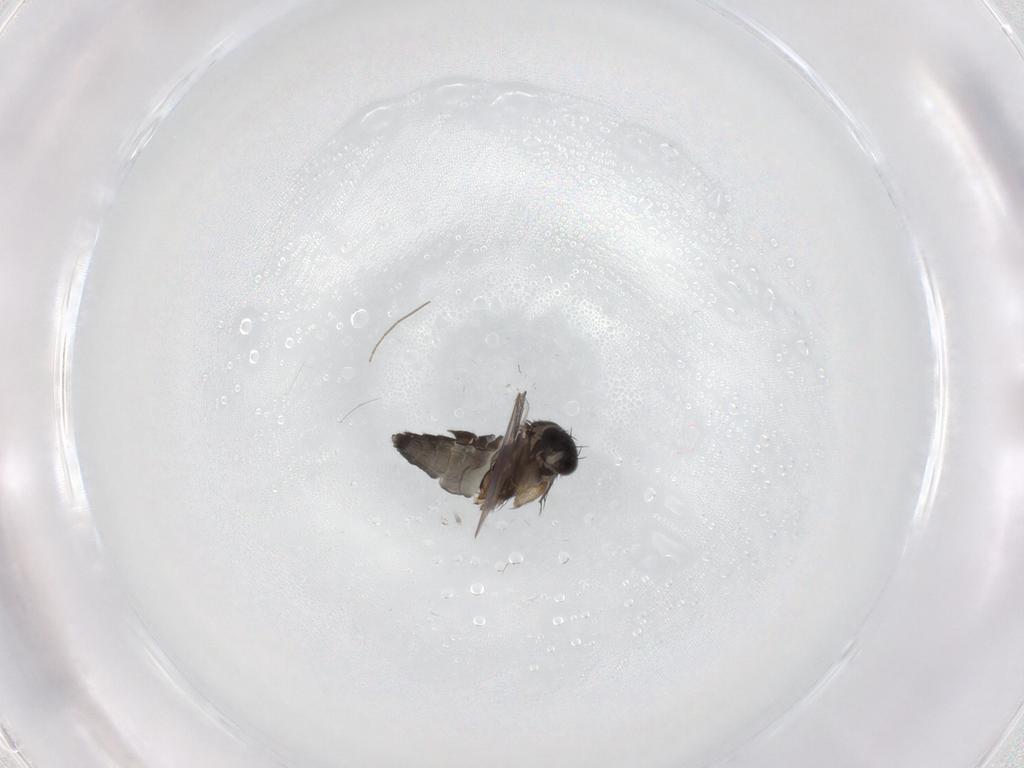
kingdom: Animalia
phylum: Arthropoda
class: Insecta
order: Diptera
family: Phoridae
